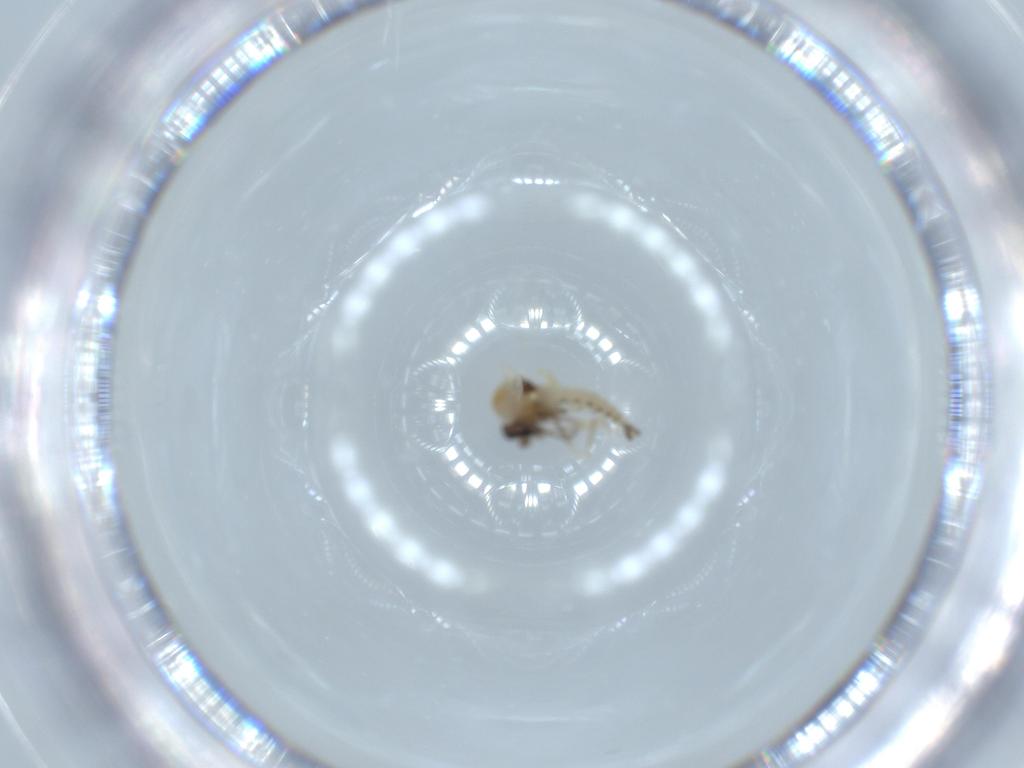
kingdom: Animalia
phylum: Arthropoda
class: Insecta
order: Diptera
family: Ceratopogonidae
